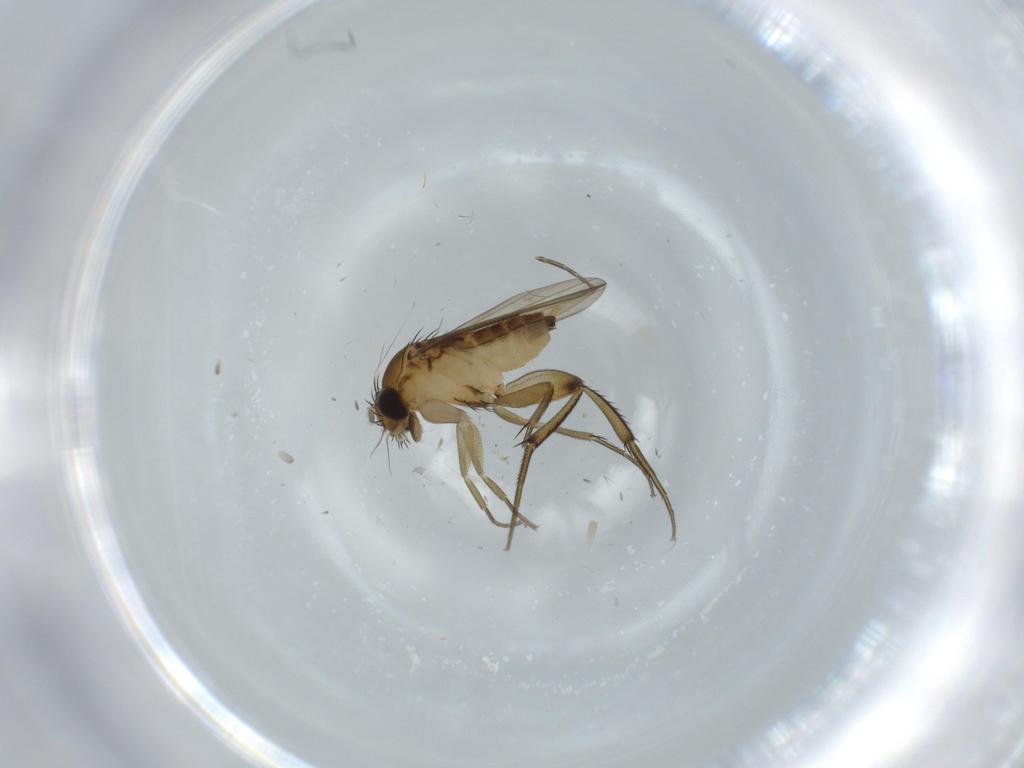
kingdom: Animalia
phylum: Arthropoda
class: Insecta
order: Diptera
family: Phoridae
